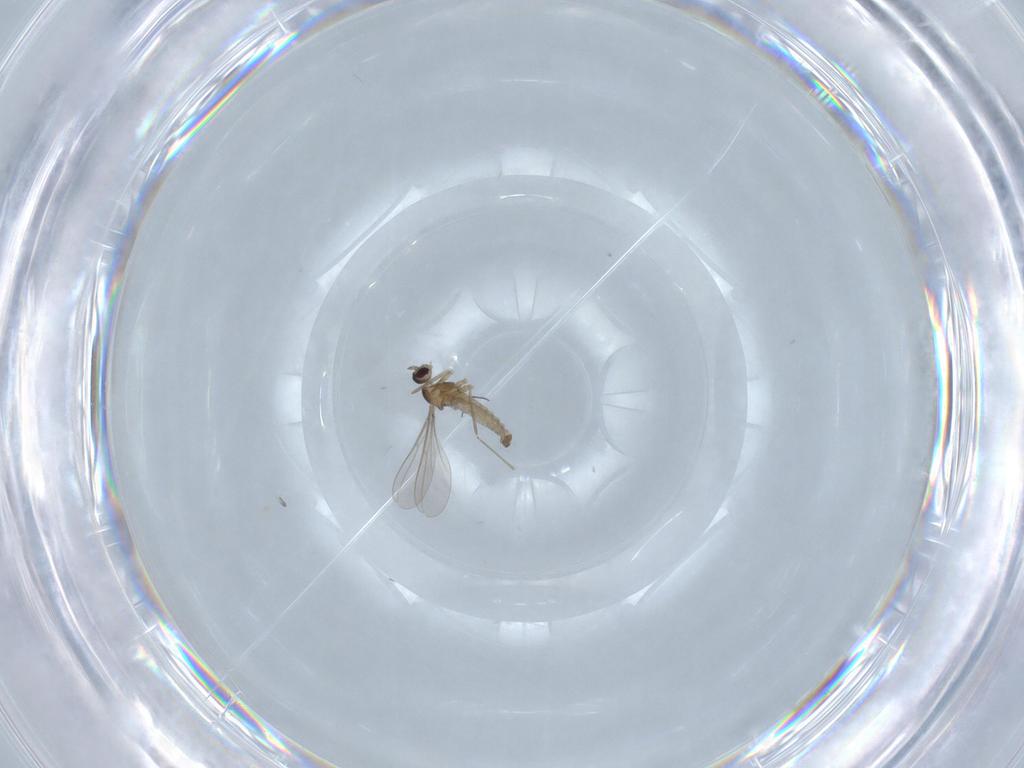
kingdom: Animalia
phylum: Arthropoda
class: Insecta
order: Diptera
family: Cecidomyiidae
